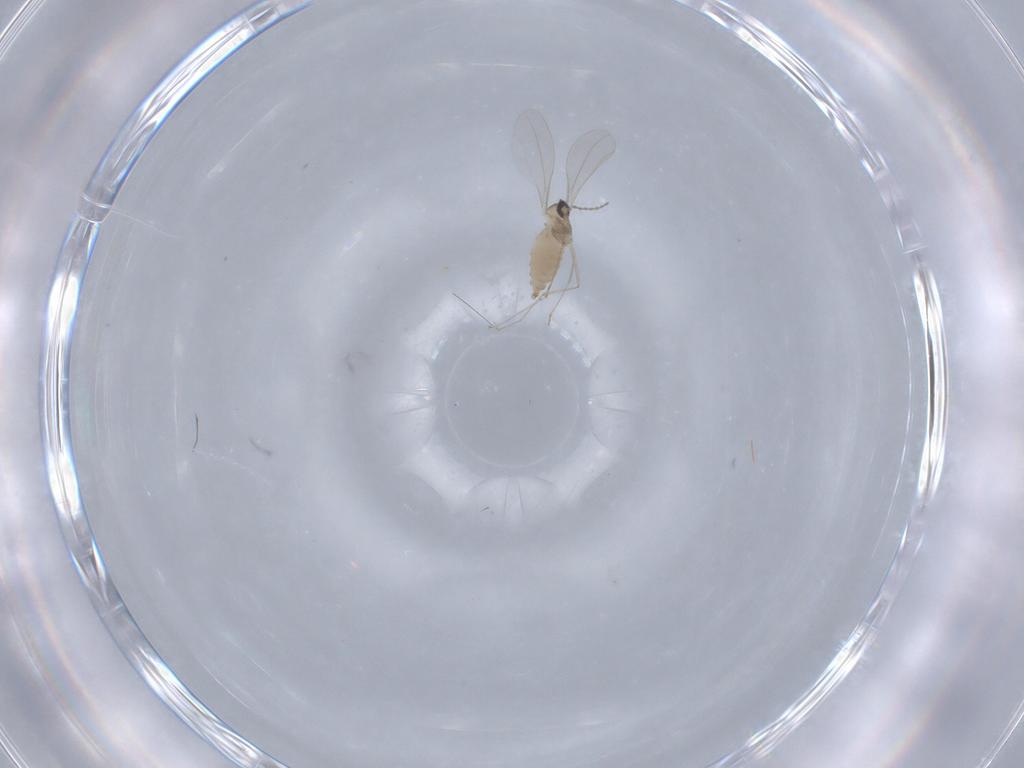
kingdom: Animalia
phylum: Arthropoda
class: Insecta
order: Diptera
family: Cecidomyiidae
